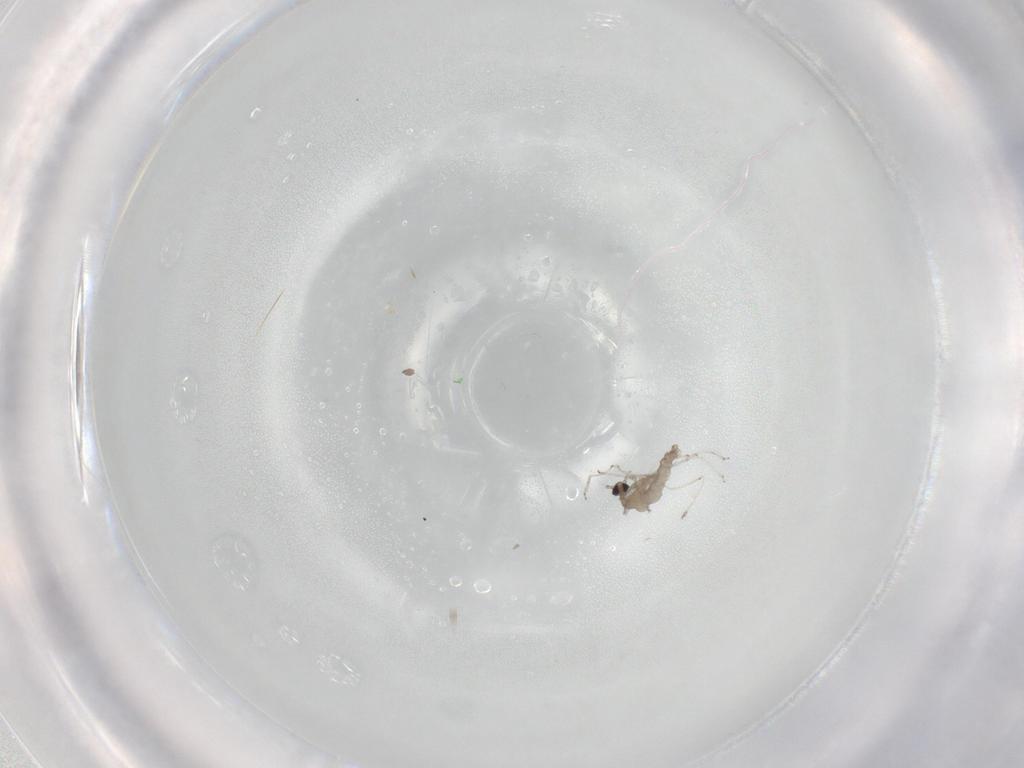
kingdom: Animalia
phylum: Arthropoda
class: Insecta
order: Diptera
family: Cecidomyiidae
